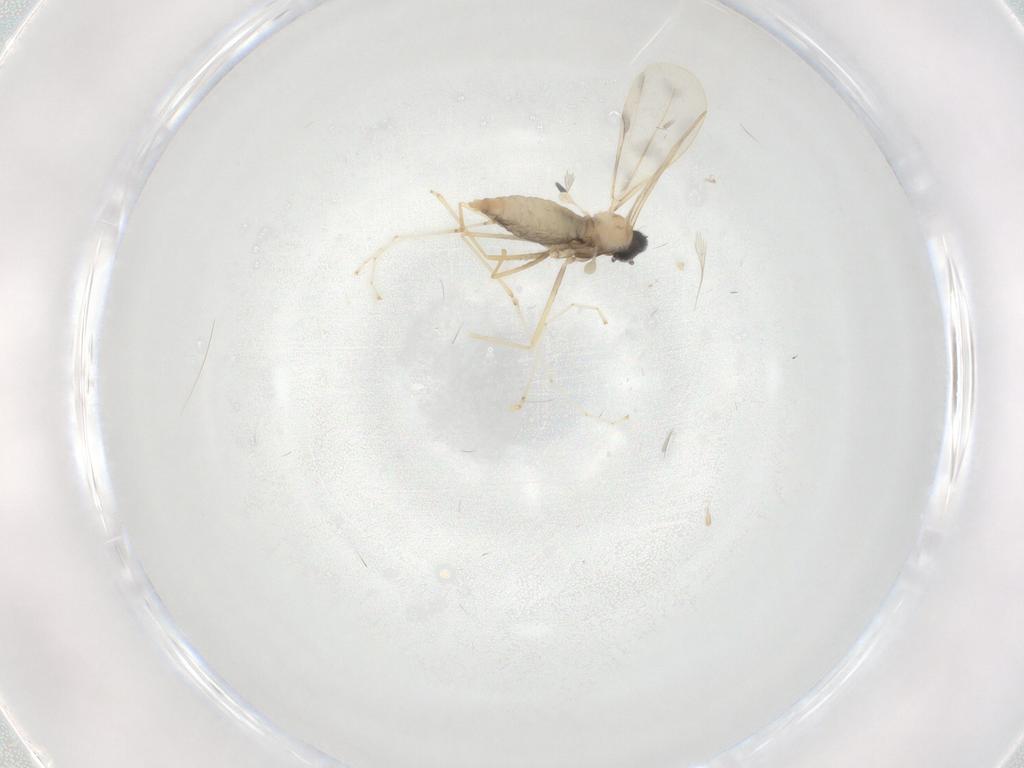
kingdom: Animalia
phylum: Arthropoda
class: Insecta
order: Diptera
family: Cecidomyiidae
